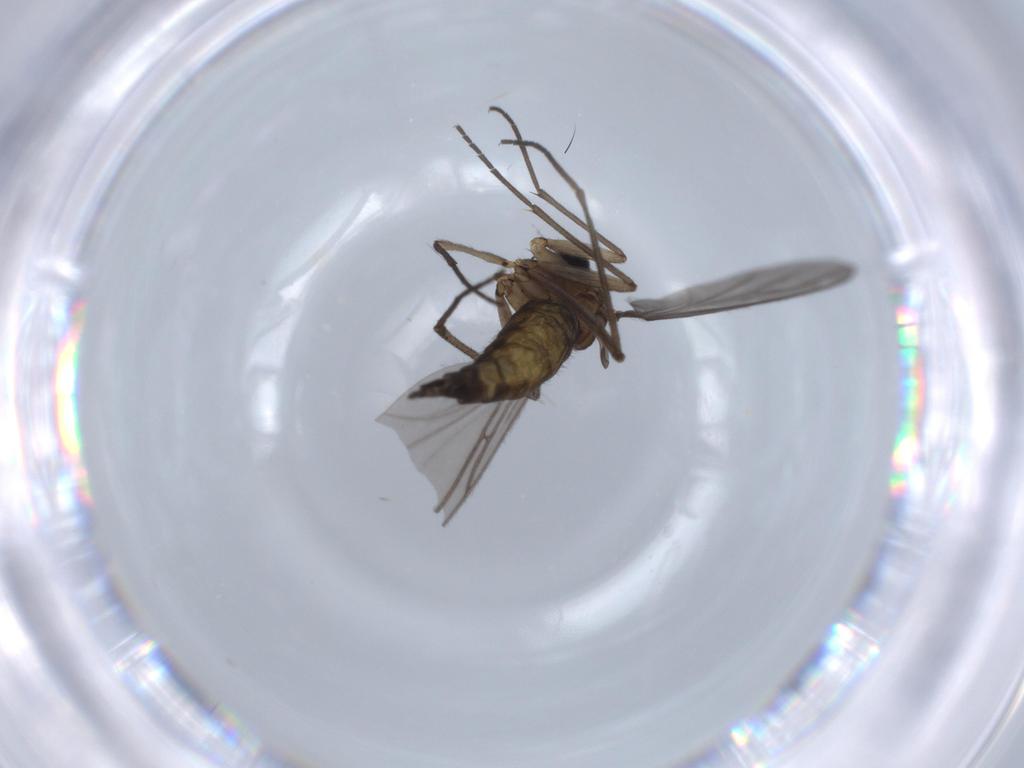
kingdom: Animalia
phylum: Arthropoda
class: Insecta
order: Diptera
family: Sciaridae
